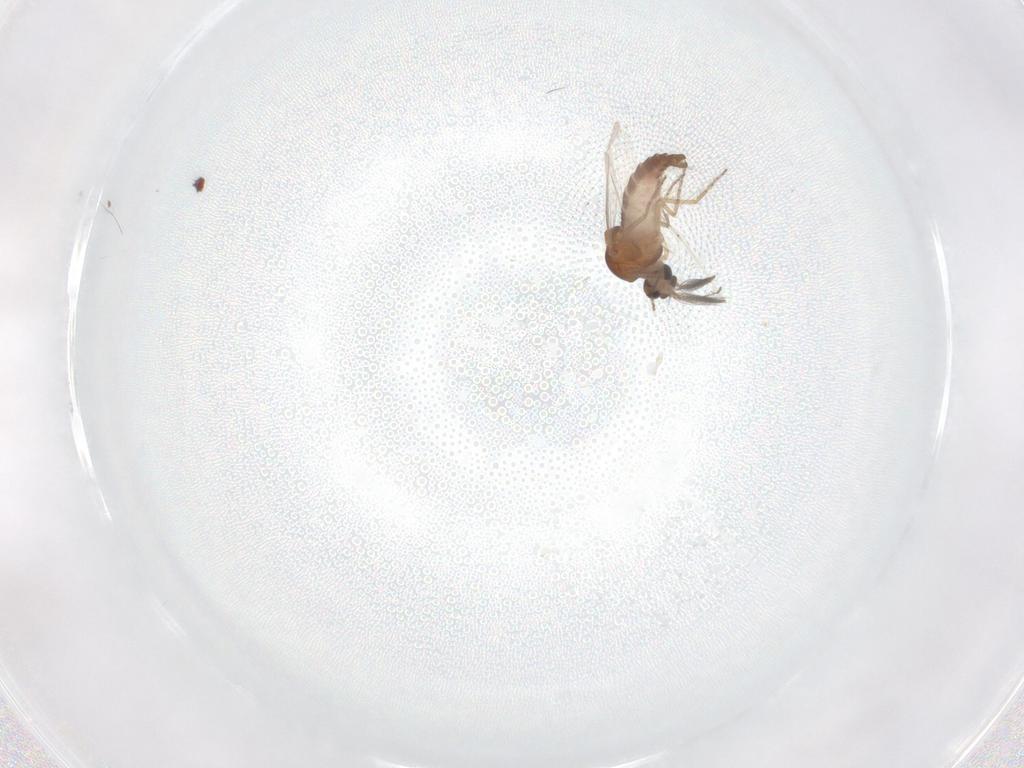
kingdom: Animalia
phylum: Arthropoda
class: Insecta
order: Diptera
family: Ceratopogonidae
